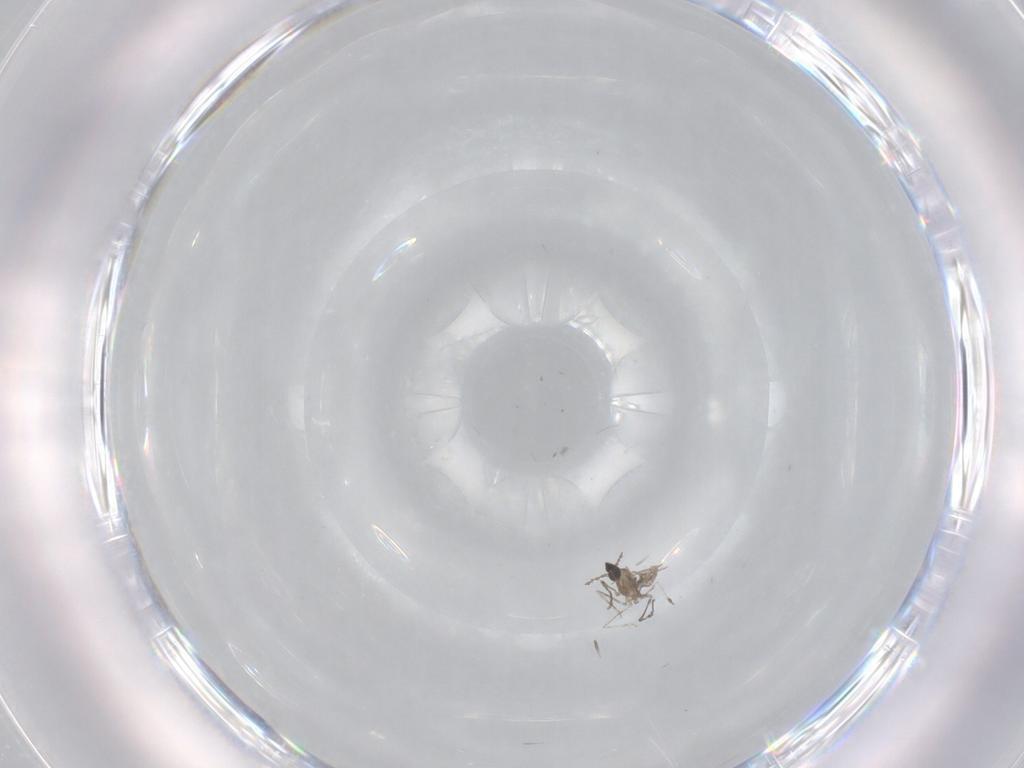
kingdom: Animalia
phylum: Arthropoda
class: Insecta
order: Diptera
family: Cecidomyiidae
